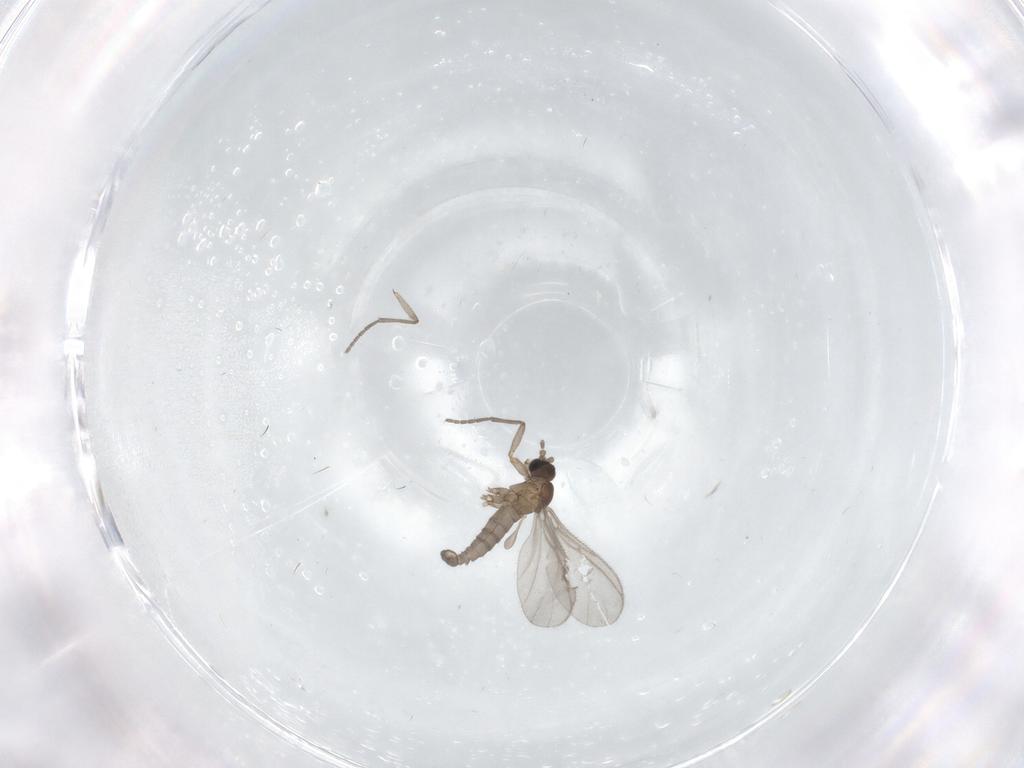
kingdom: Animalia
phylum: Arthropoda
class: Insecta
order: Diptera
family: Sciaridae
